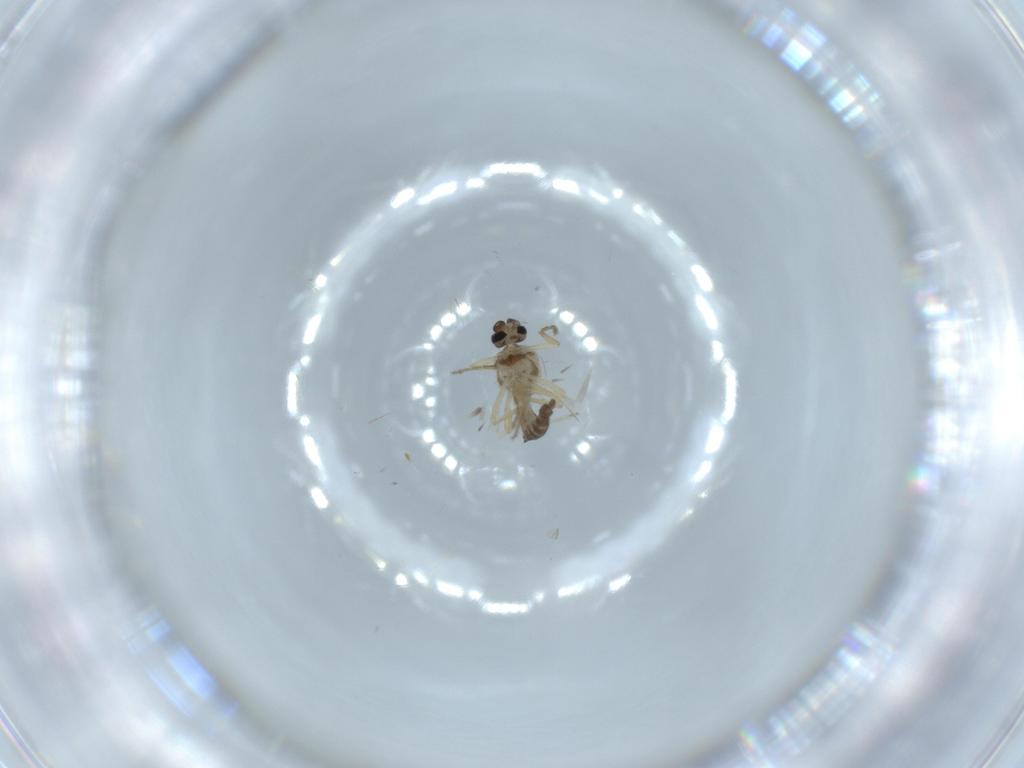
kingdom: Animalia
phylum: Arthropoda
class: Insecta
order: Diptera
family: Ceratopogonidae
